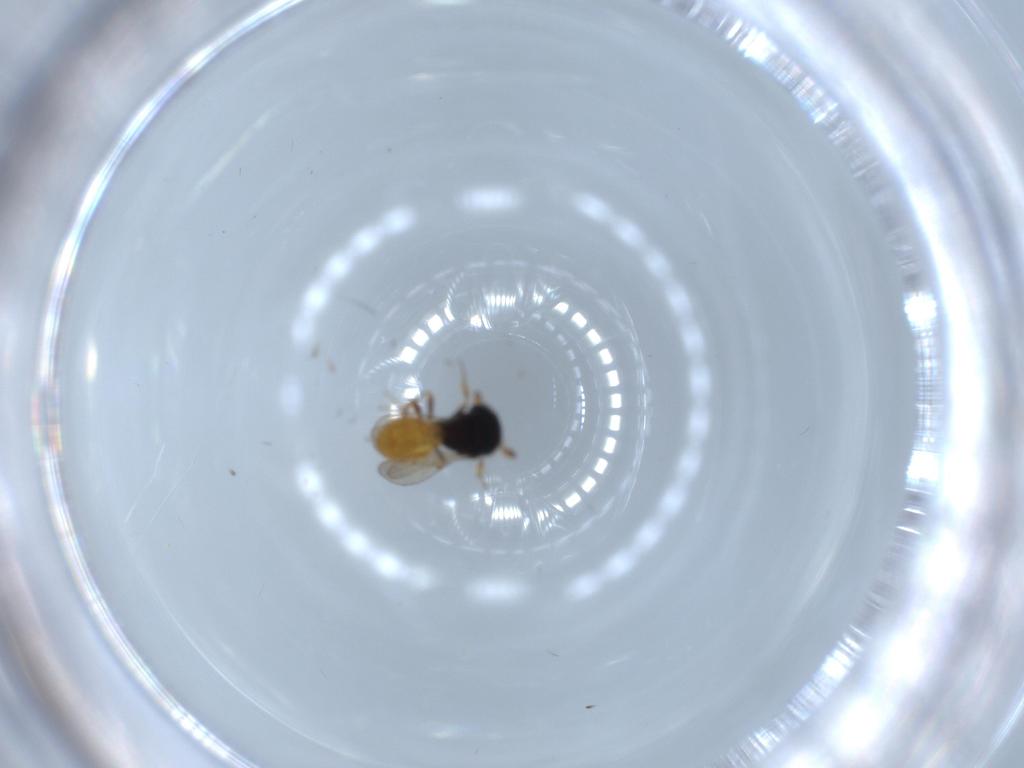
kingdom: Animalia
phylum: Arthropoda
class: Insecta
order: Hymenoptera
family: Scelionidae
